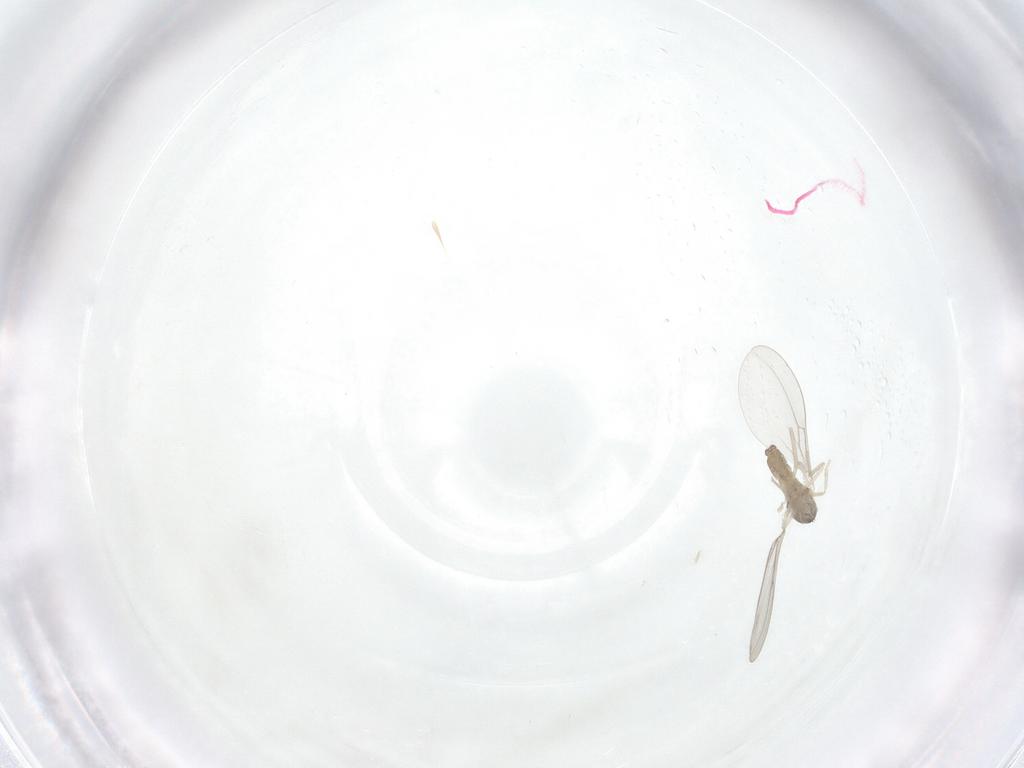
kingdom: Animalia
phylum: Arthropoda
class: Insecta
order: Diptera
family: Cecidomyiidae
